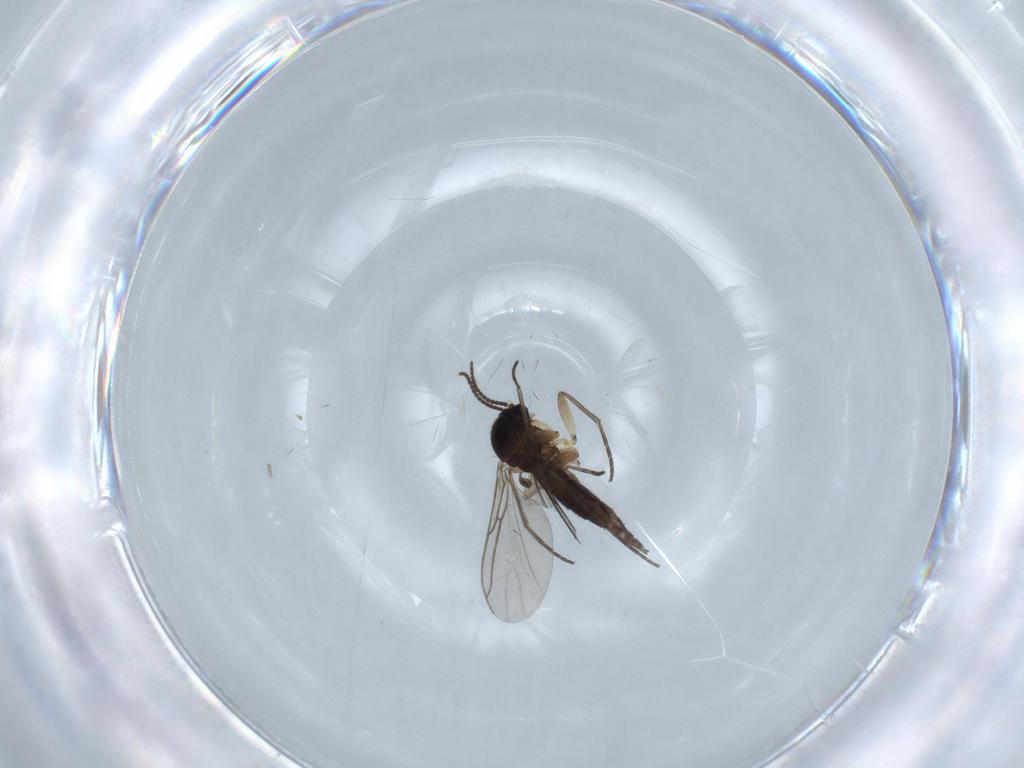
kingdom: Animalia
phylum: Arthropoda
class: Insecta
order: Diptera
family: Sciaridae
